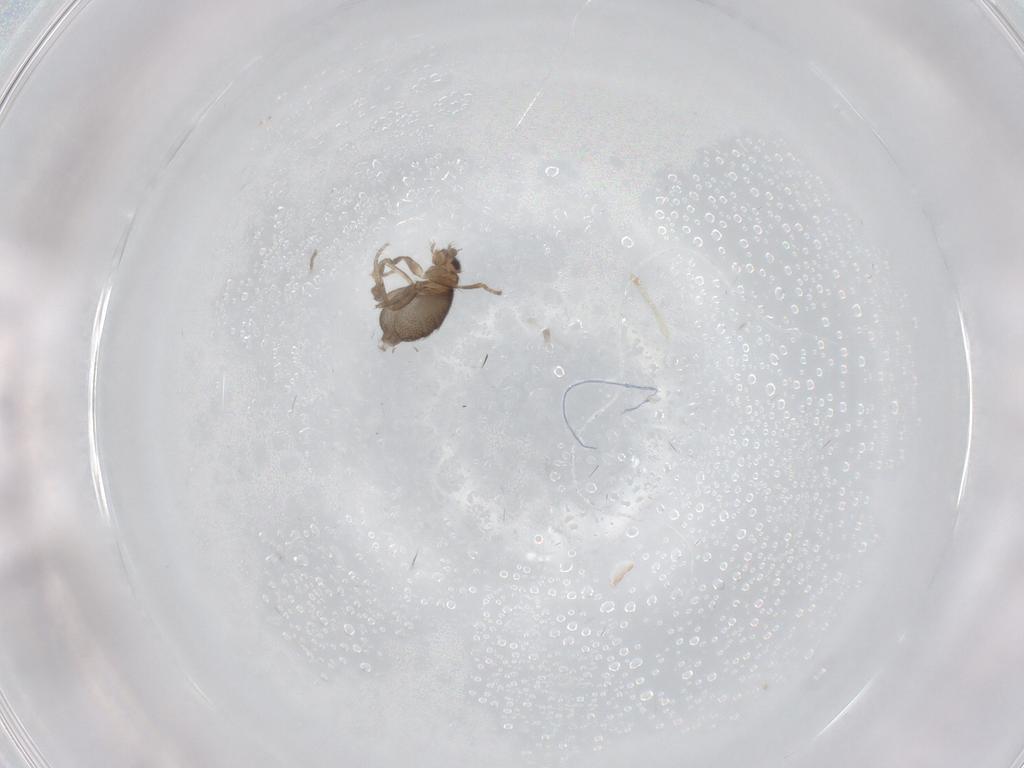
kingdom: Animalia
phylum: Arthropoda
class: Insecta
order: Diptera
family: Phoridae
